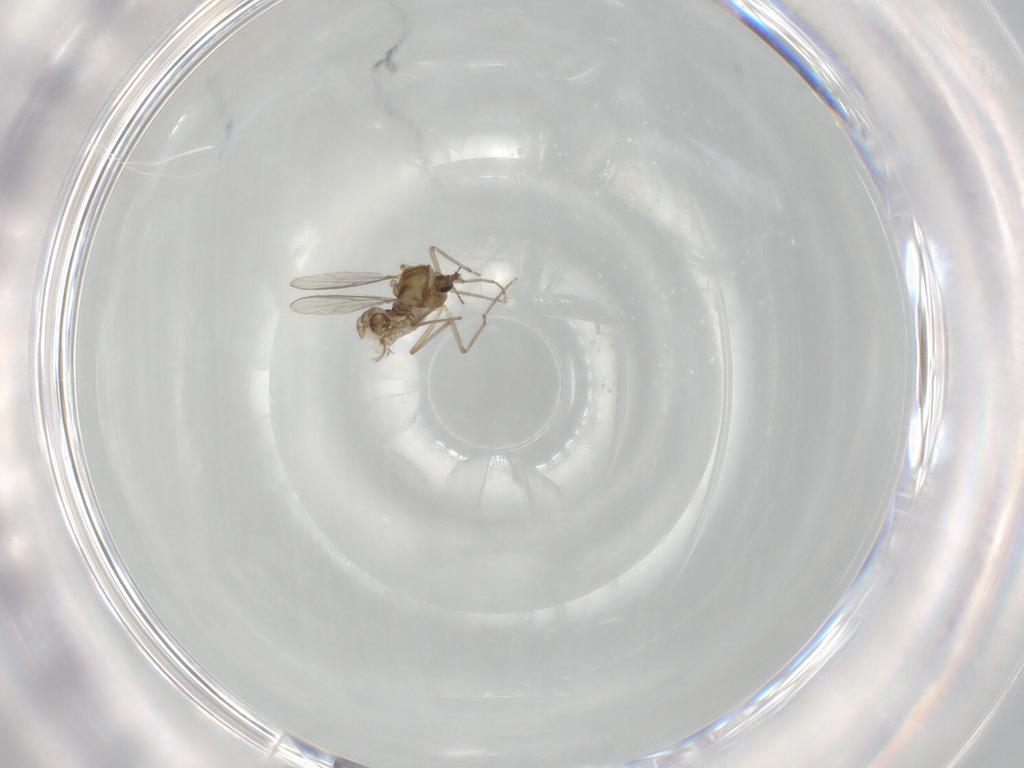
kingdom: Animalia
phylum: Arthropoda
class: Insecta
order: Diptera
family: Chironomidae
